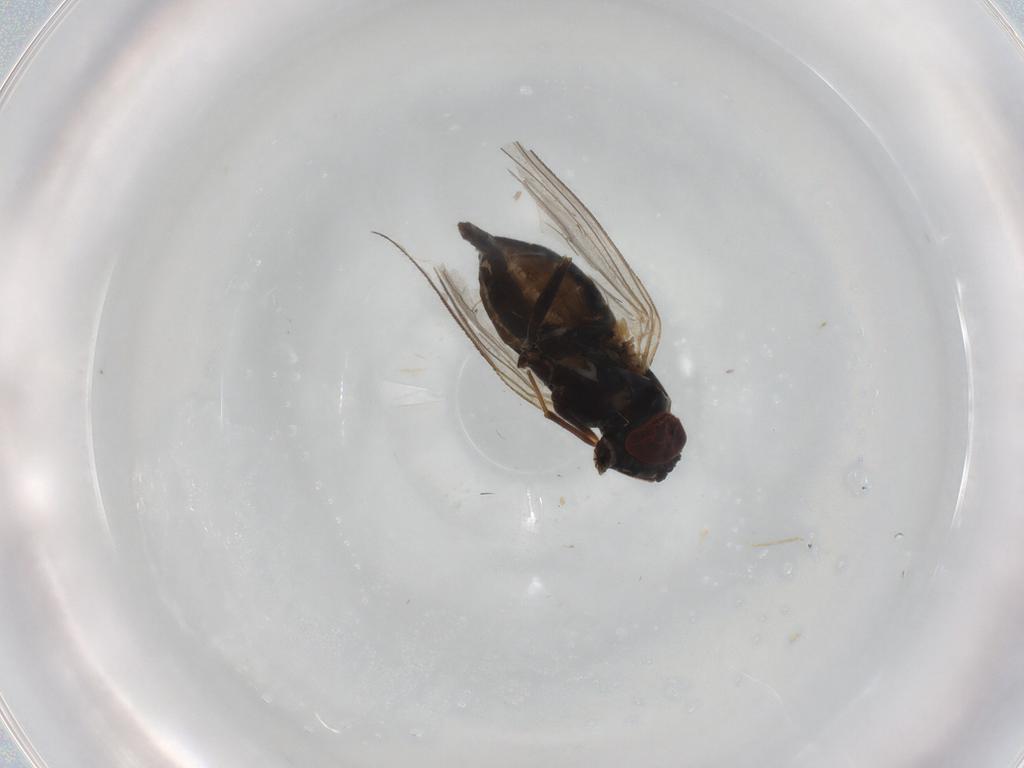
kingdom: Animalia
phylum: Arthropoda
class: Insecta
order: Diptera
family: Dolichopodidae
